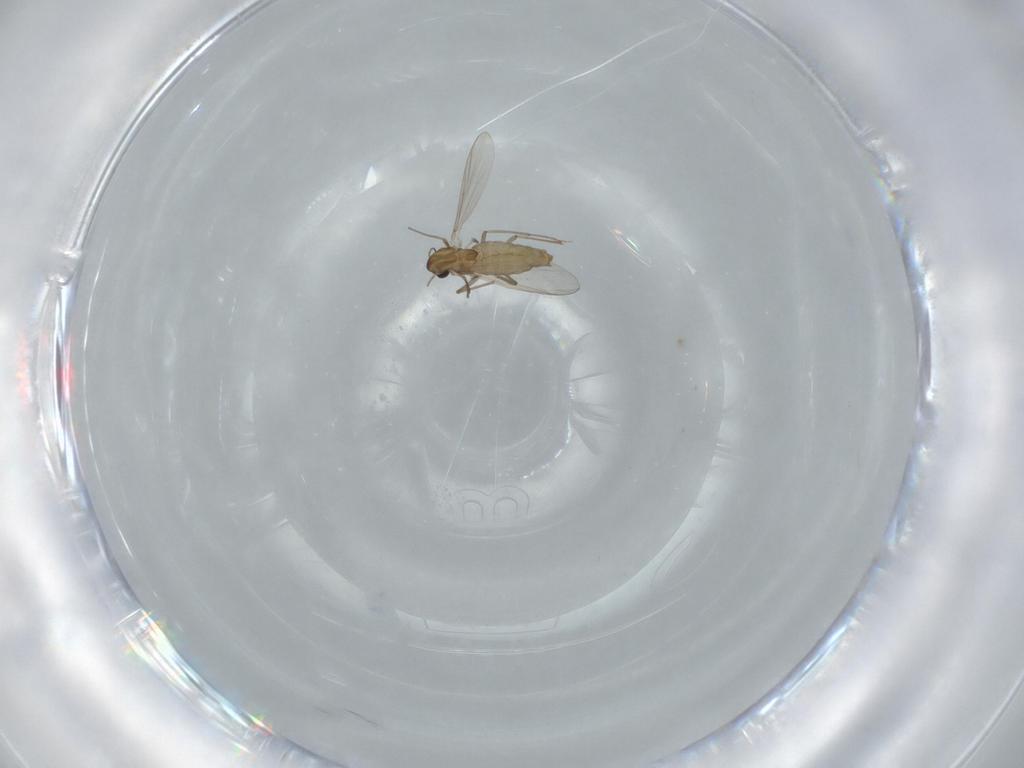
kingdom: Animalia
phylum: Arthropoda
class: Insecta
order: Diptera
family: Chironomidae
